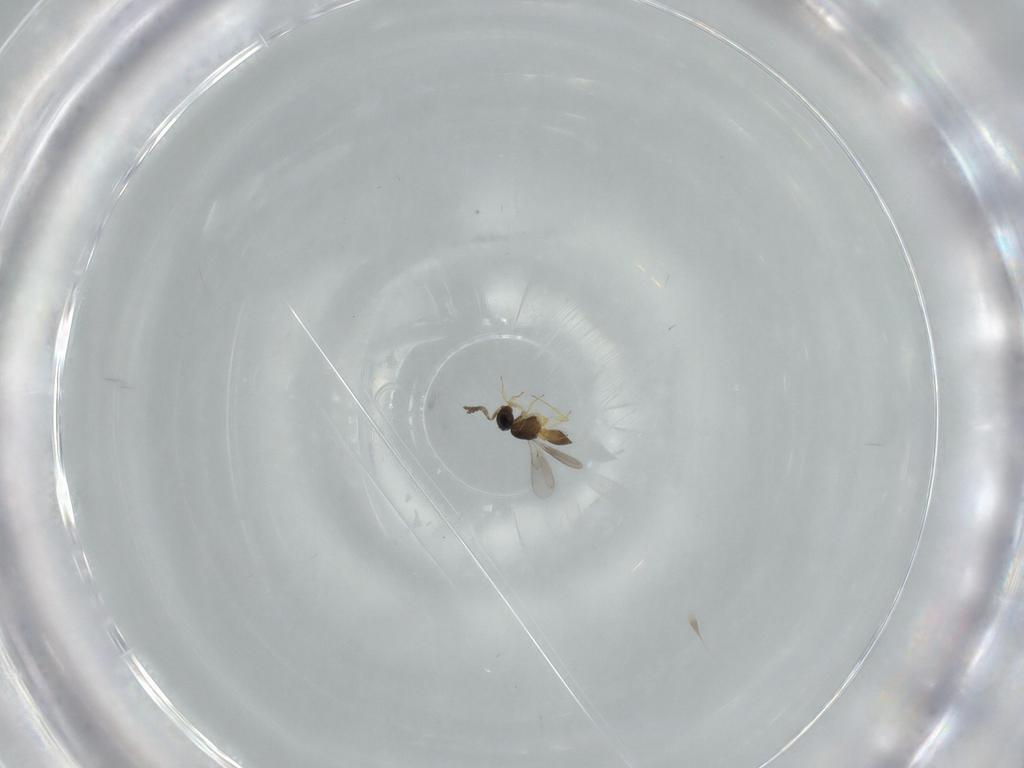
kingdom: Animalia
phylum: Arthropoda
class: Insecta
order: Hymenoptera
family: Scelionidae
